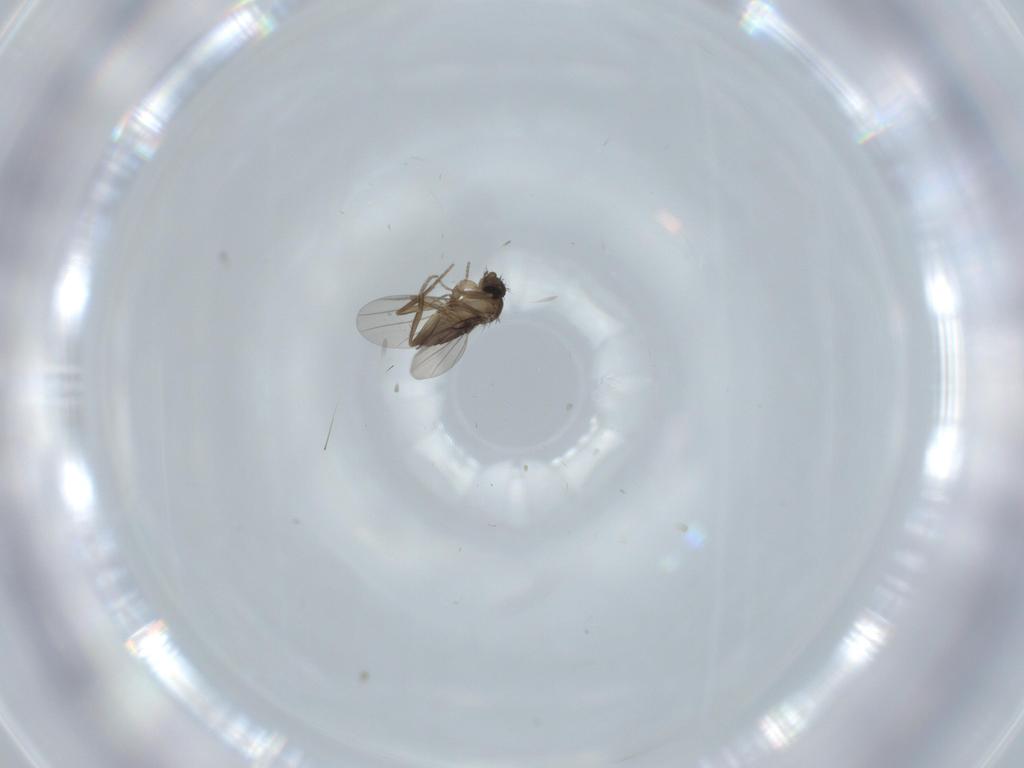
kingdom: Animalia
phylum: Arthropoda
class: Insecta
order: Diptera
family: Phoridae
